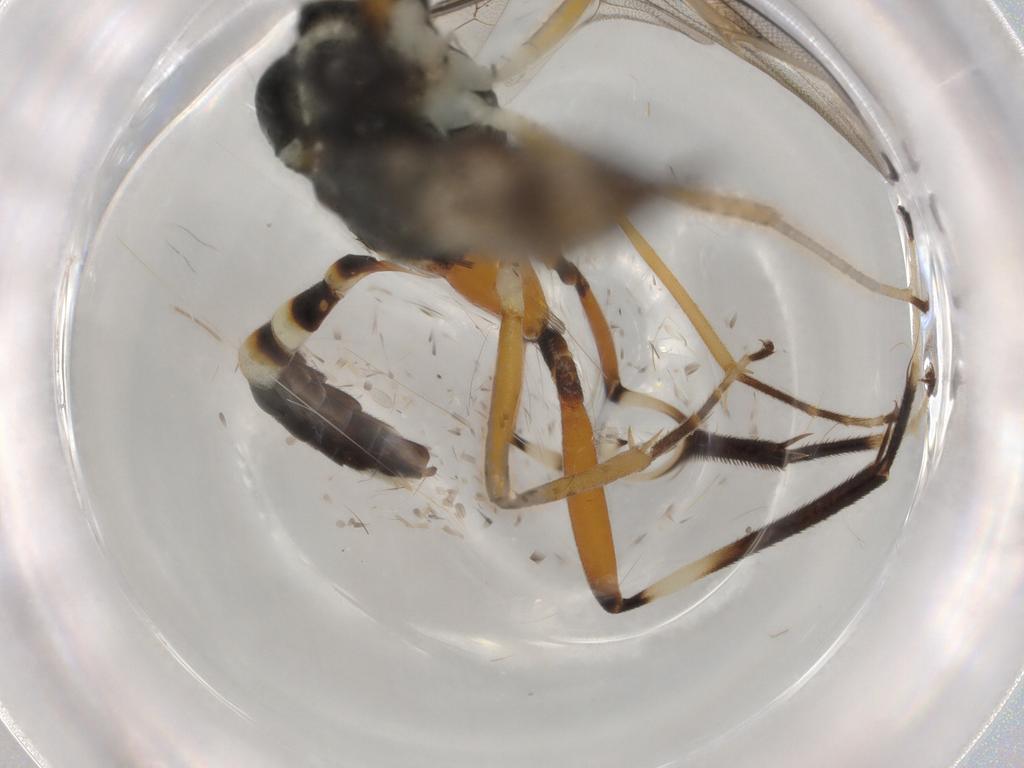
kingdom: Animalia
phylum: Arthropoda
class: Insecta
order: Hymenoptera
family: Ichneumonidae
